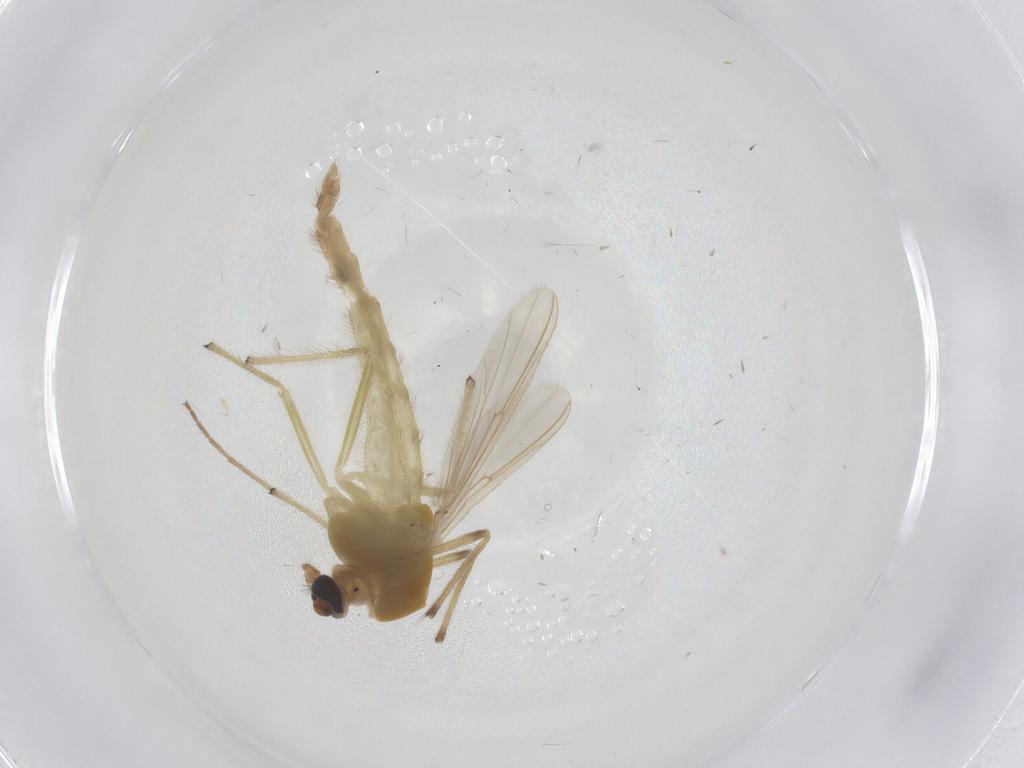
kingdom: Animalia
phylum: Arthropoda
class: Insecta
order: Diptera
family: Chironomidae
